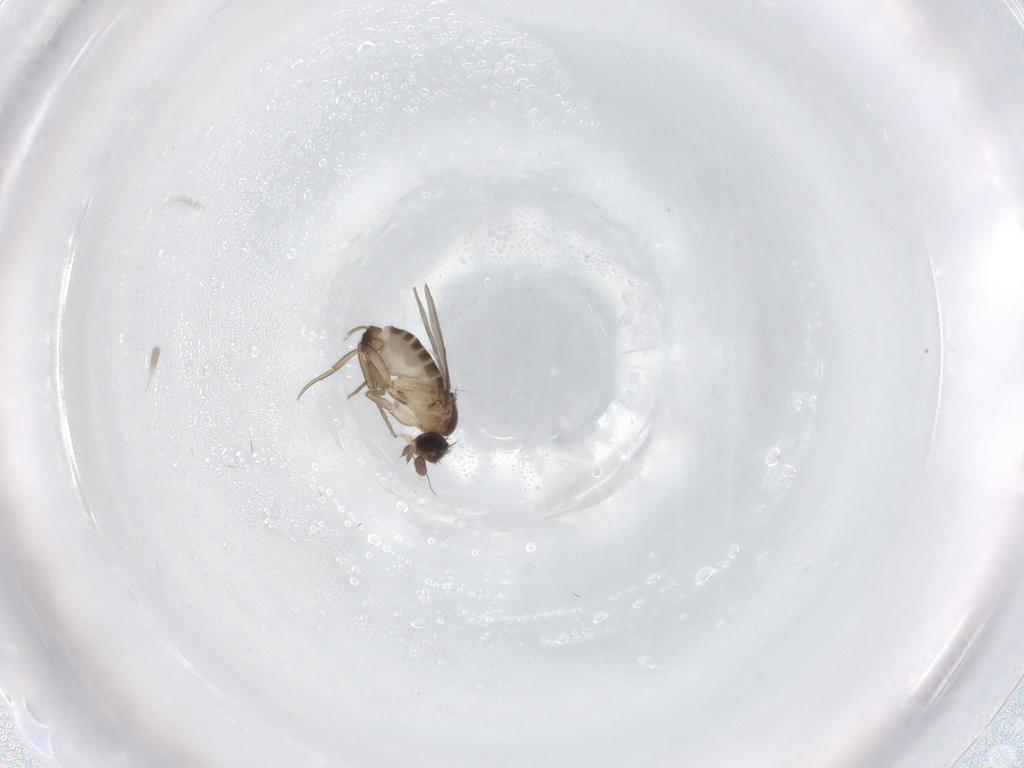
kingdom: Animalia
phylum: Arthropoda
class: Insecta
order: Diptera
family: Phoridae
